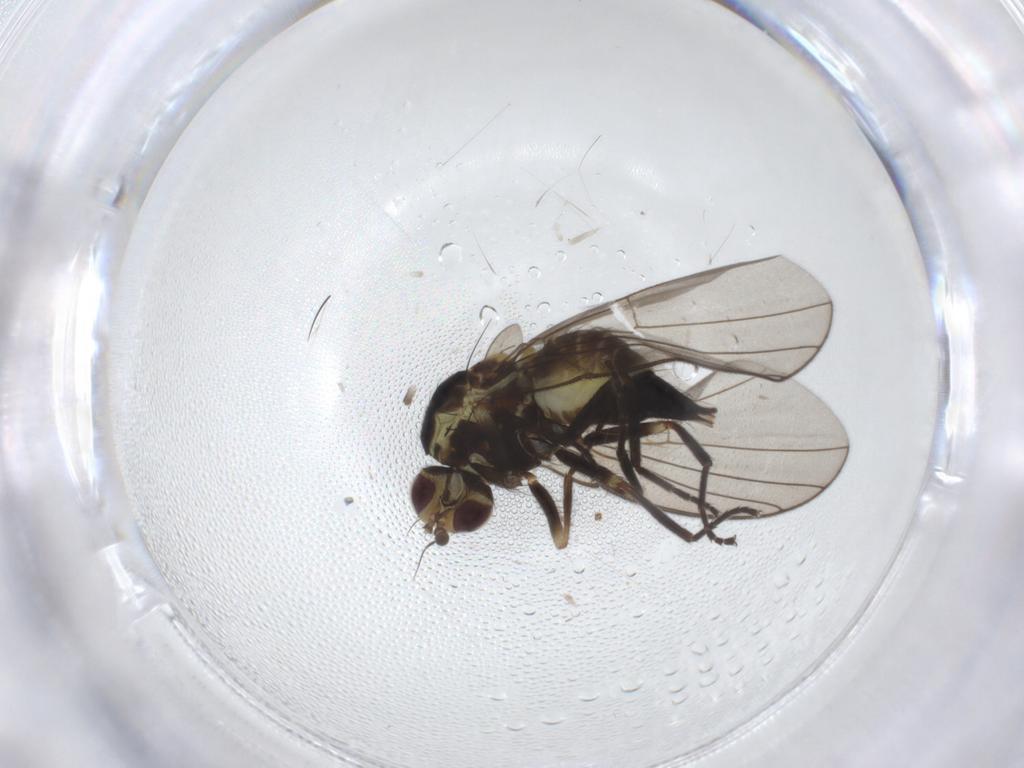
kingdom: Animalia
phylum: Arthropoda
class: Insecta
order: Diptera
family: Agromyzidae
